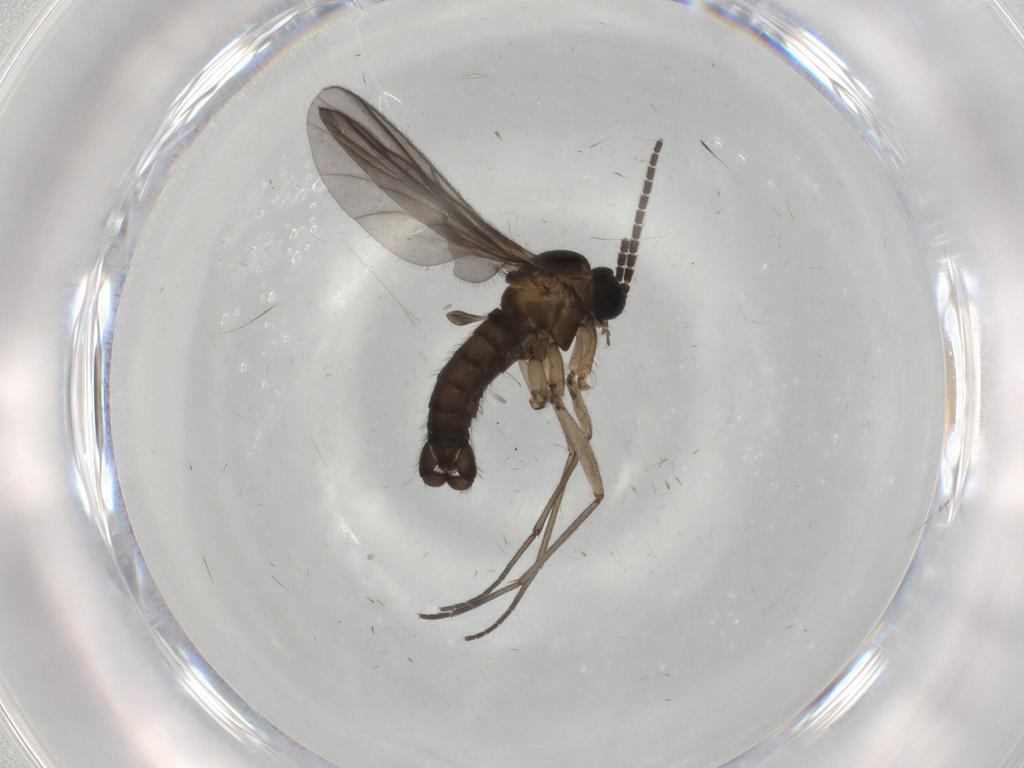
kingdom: Animalia
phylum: Arthropoda
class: Insecta
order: Diptera
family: Sciaridae
